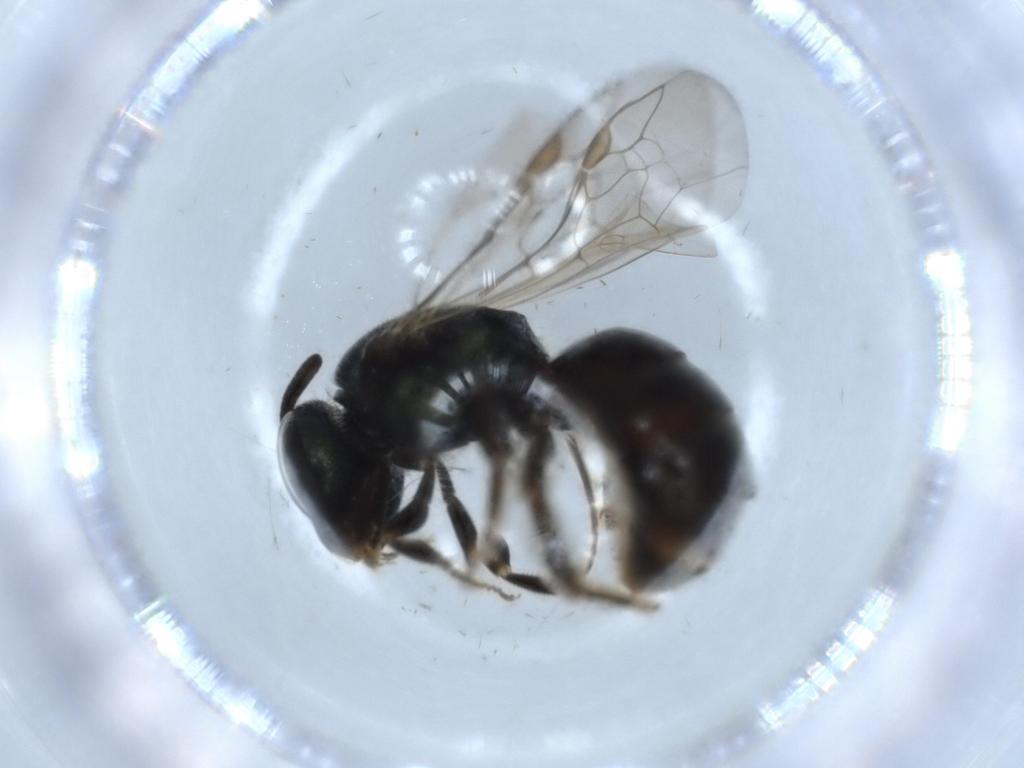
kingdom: Animalia
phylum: Arthropoda
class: Insecta
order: Hymenoptera
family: Halictidae
